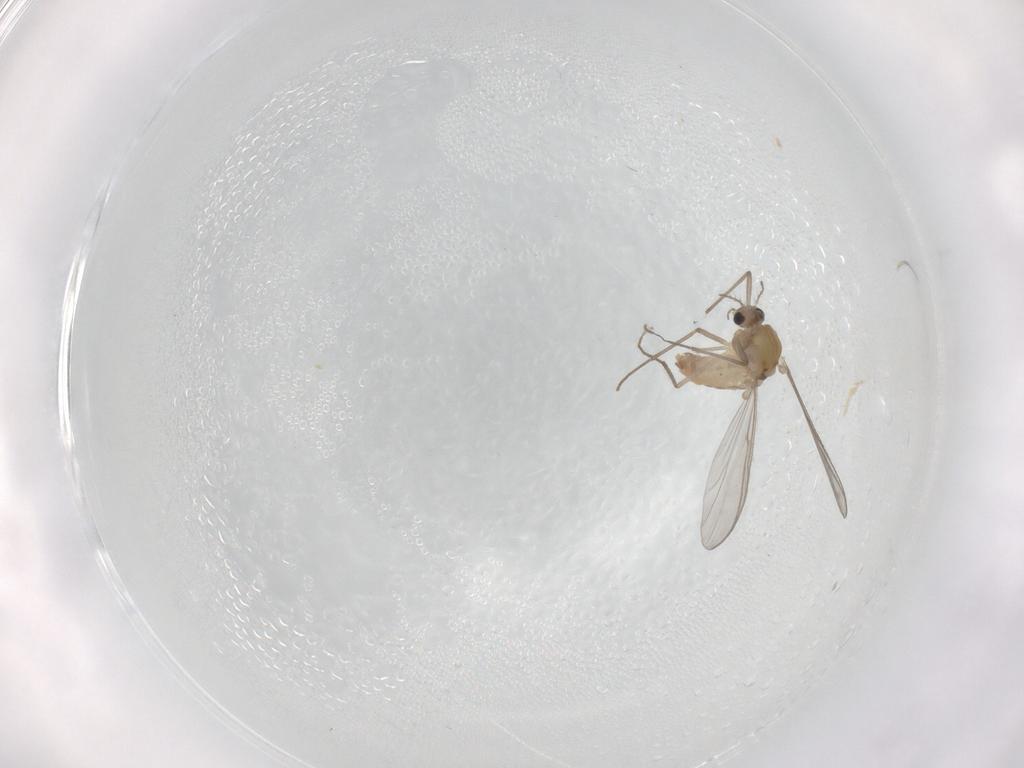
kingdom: Animalia
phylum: Arthropoda
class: Insecta
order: Diptera
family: Chironomidae
